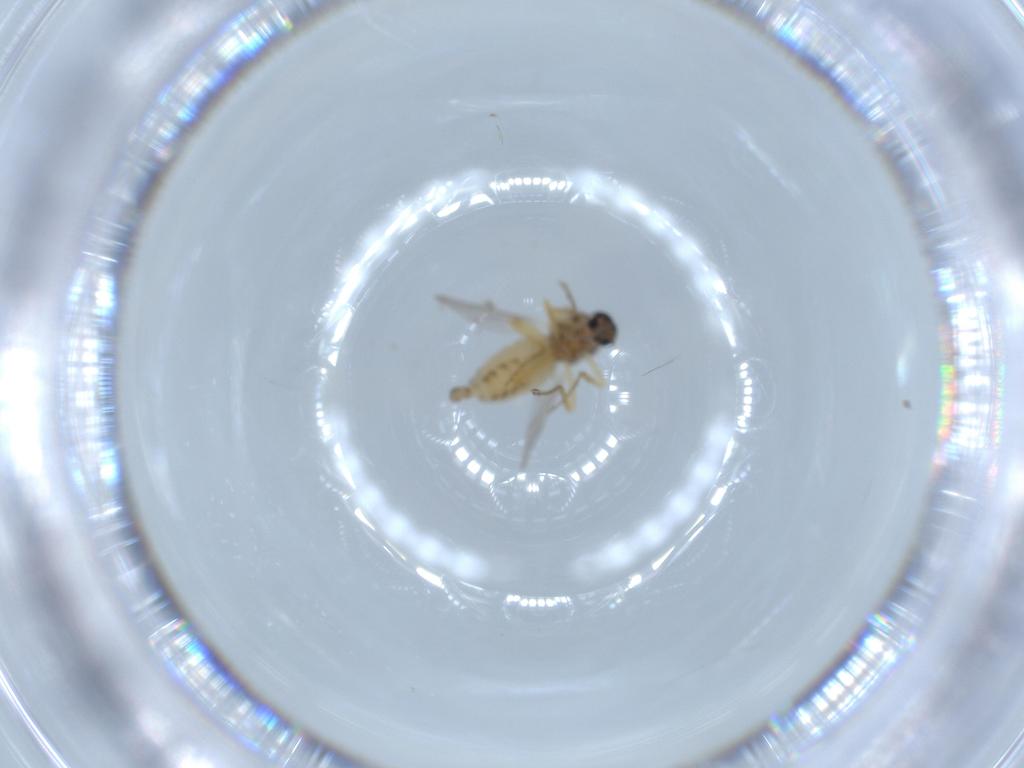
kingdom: Animalia
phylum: Arthropoda
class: Insecta
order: Diptera
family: Ceratopogonidae
